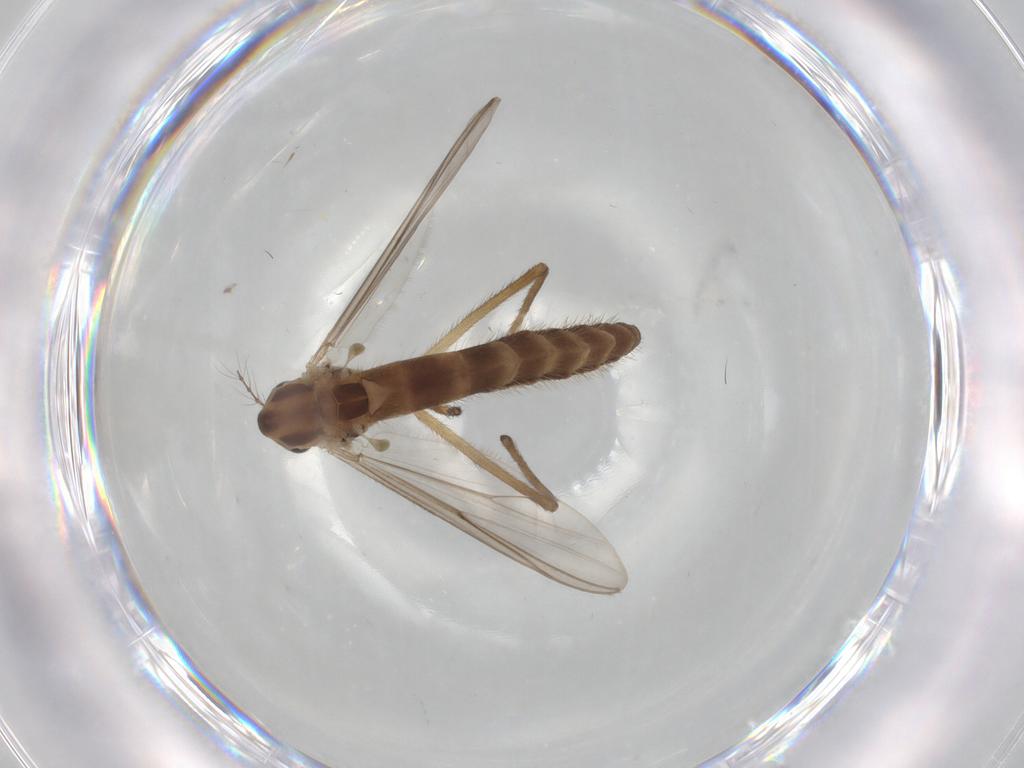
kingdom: Animalia
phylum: Arthropoda
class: Insecta
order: Diptera
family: Chironomidae
